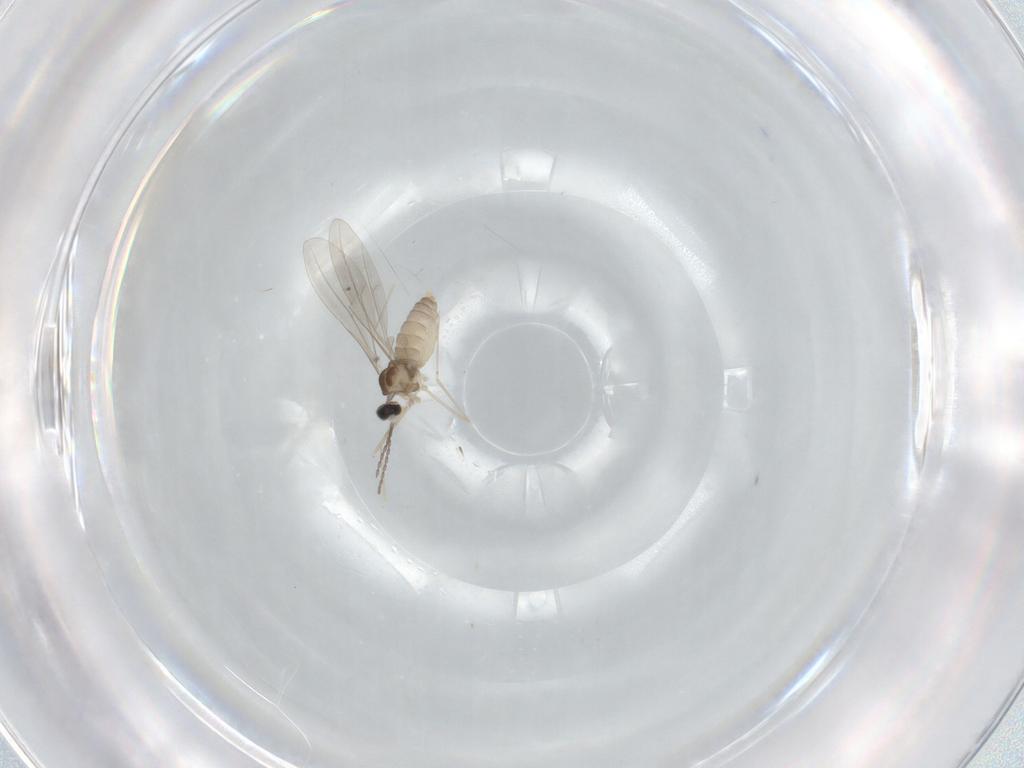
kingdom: Animalia
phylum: Arthropoda
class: Insecta
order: Diptera
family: Cecidomyiidae
